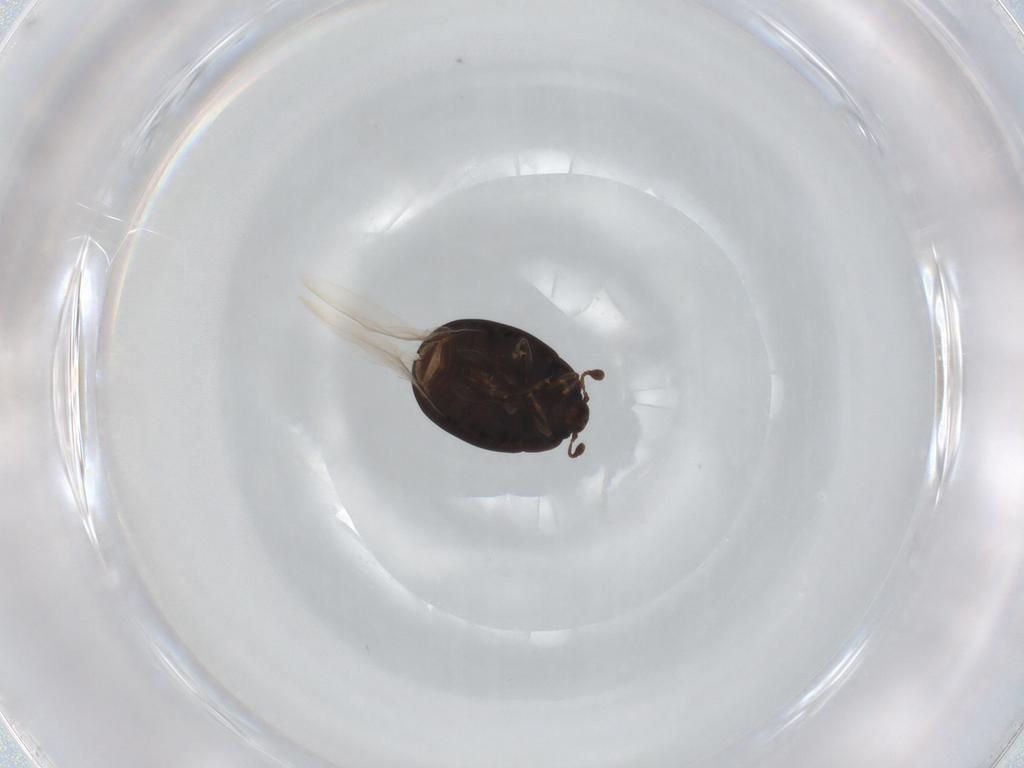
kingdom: Animalia
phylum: Arthropoda
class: Insecta
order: Coleoptera
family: Discolomatidae
